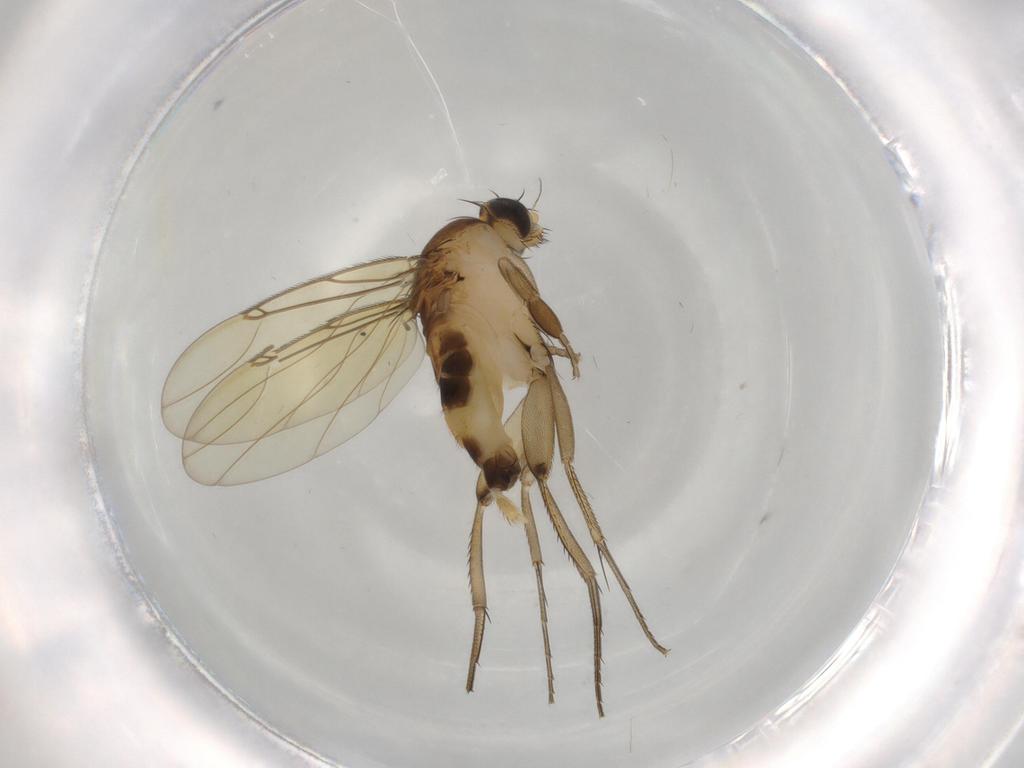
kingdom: Animalia
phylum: Arthropoda
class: Insecta
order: Diptera
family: Phoridae
